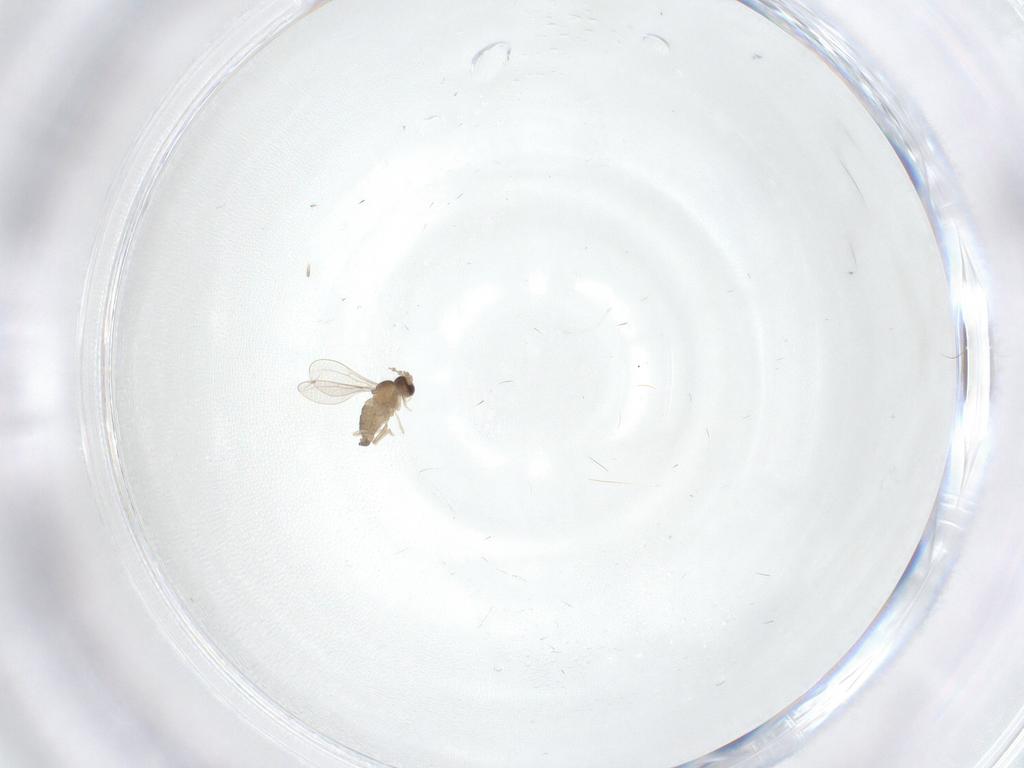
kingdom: Animalia
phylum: Arthropoda
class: Insecta
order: Diptera
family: Cecidomyiidae
